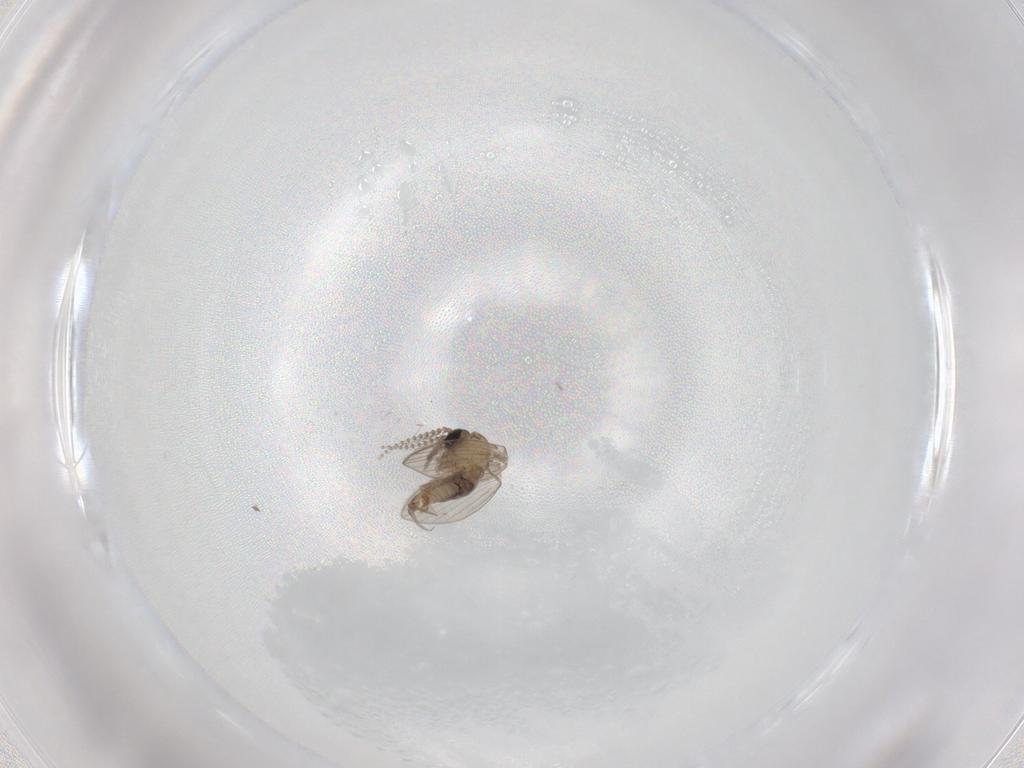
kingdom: Animalia
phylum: Arthropoda
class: Insecta
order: Diptera
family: Psychodidae
